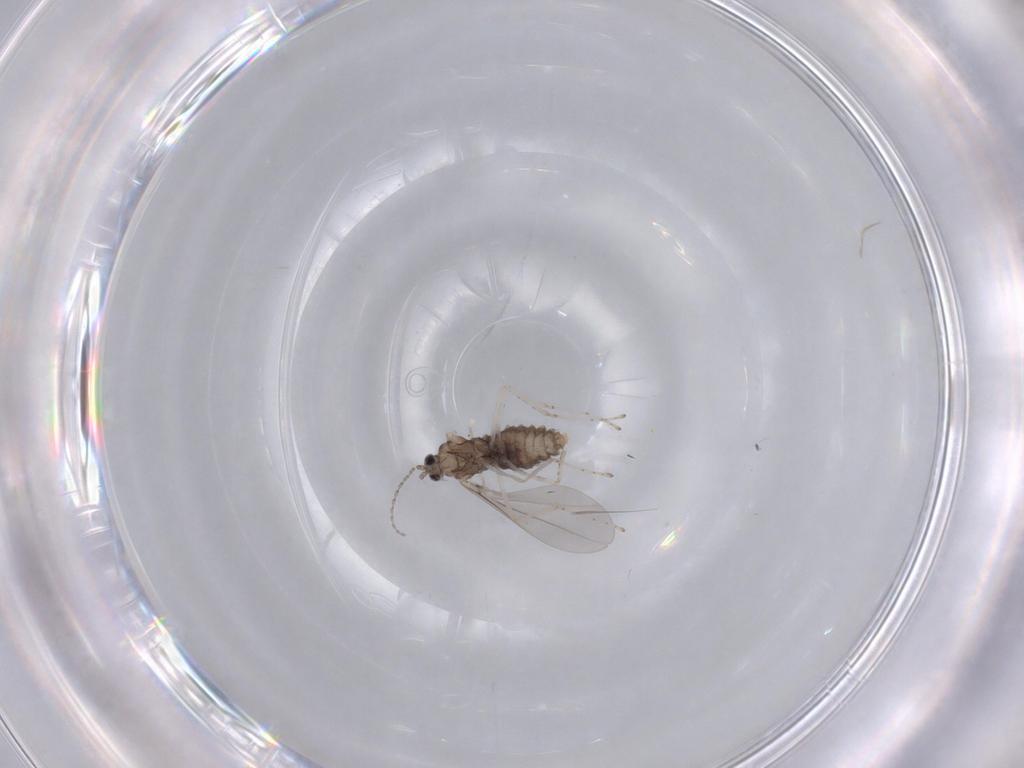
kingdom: Animalia
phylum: Arthropoda
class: Insecta
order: Diptera
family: Cecidomyiidae
